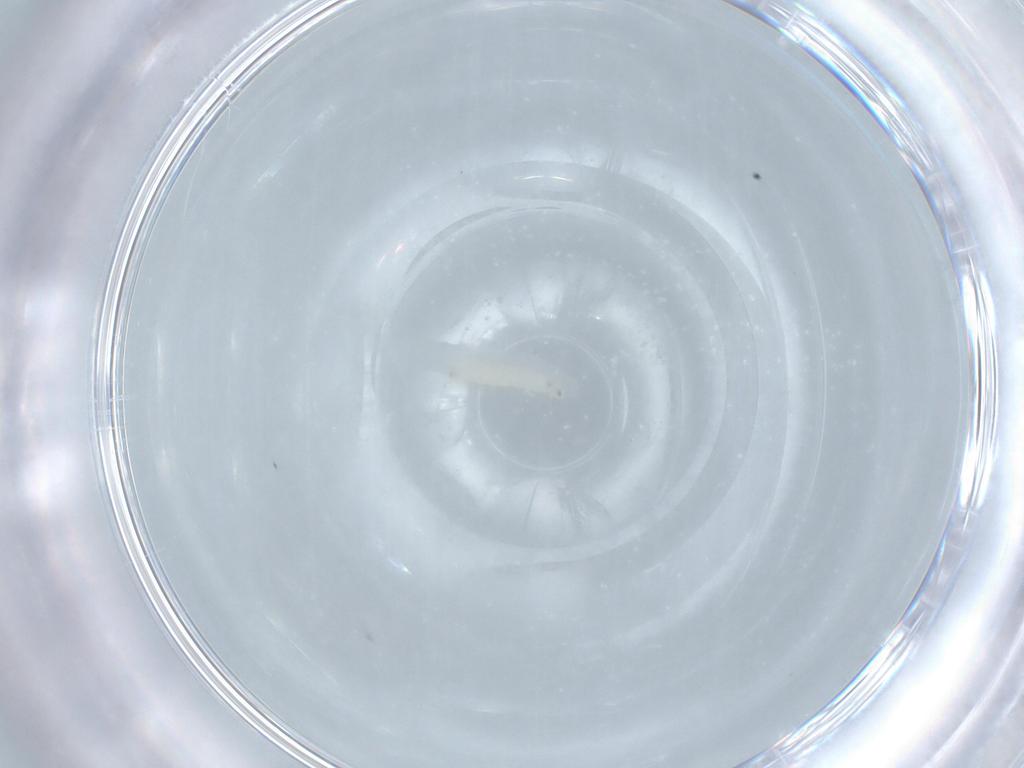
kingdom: Animalia
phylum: Arthropoda
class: Insecta
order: Diptera
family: Sarcophagidae
